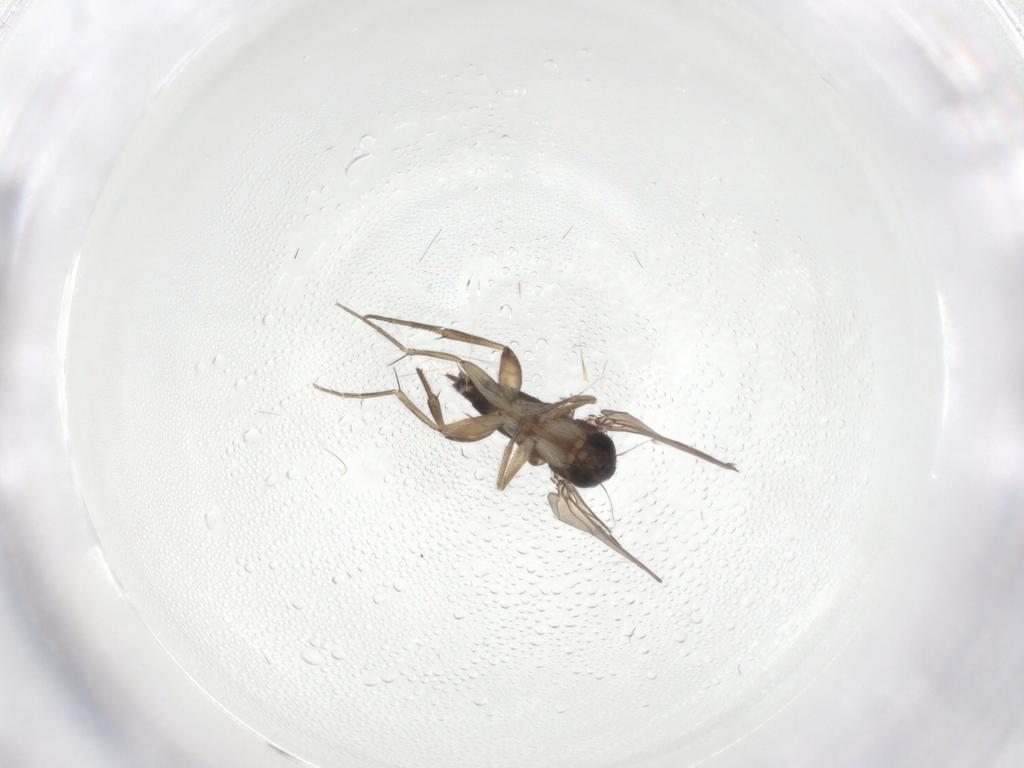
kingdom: Animalia
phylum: Arthropoda
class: Insecta
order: Diptera
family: Phoridae
